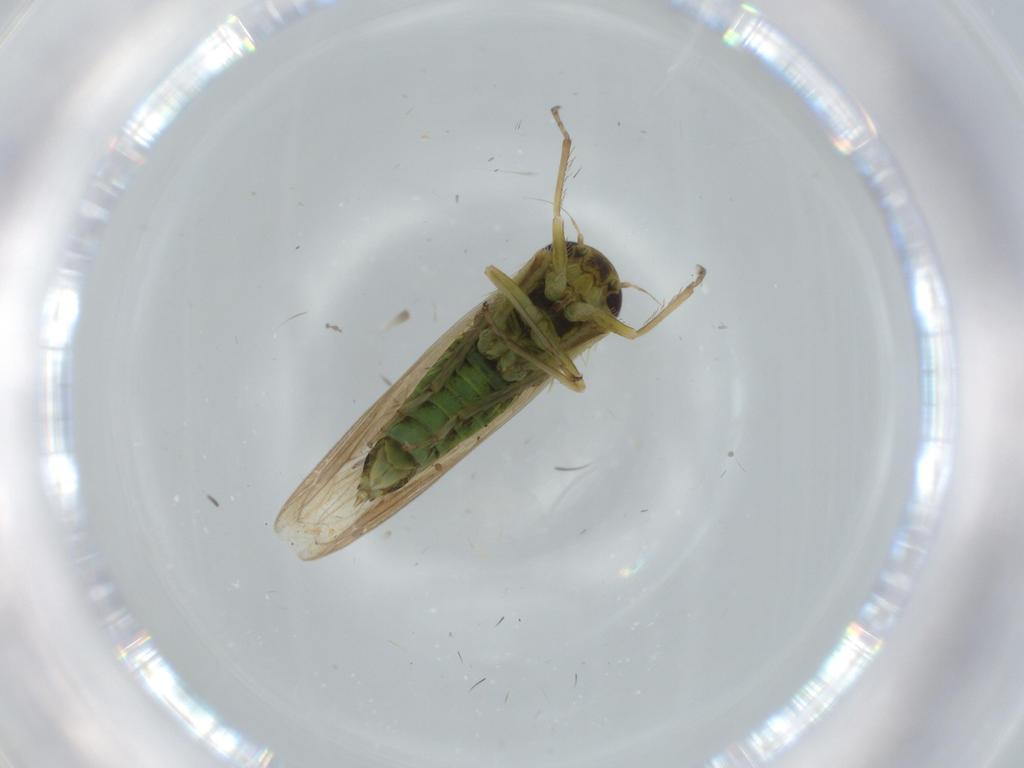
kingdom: Animalia
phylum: Arthropoda
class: Insecta
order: Hemiptera
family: Cicadellidae
